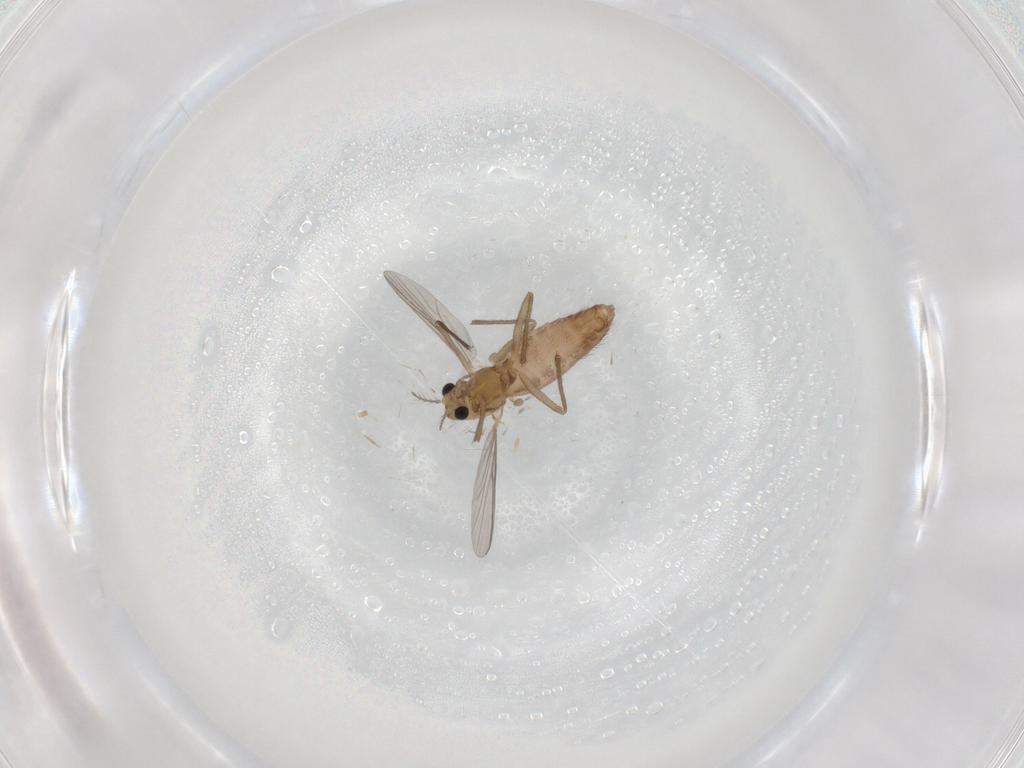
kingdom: Animalia
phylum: Arthropoda
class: Insecta
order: Diptera
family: Chironomidae
